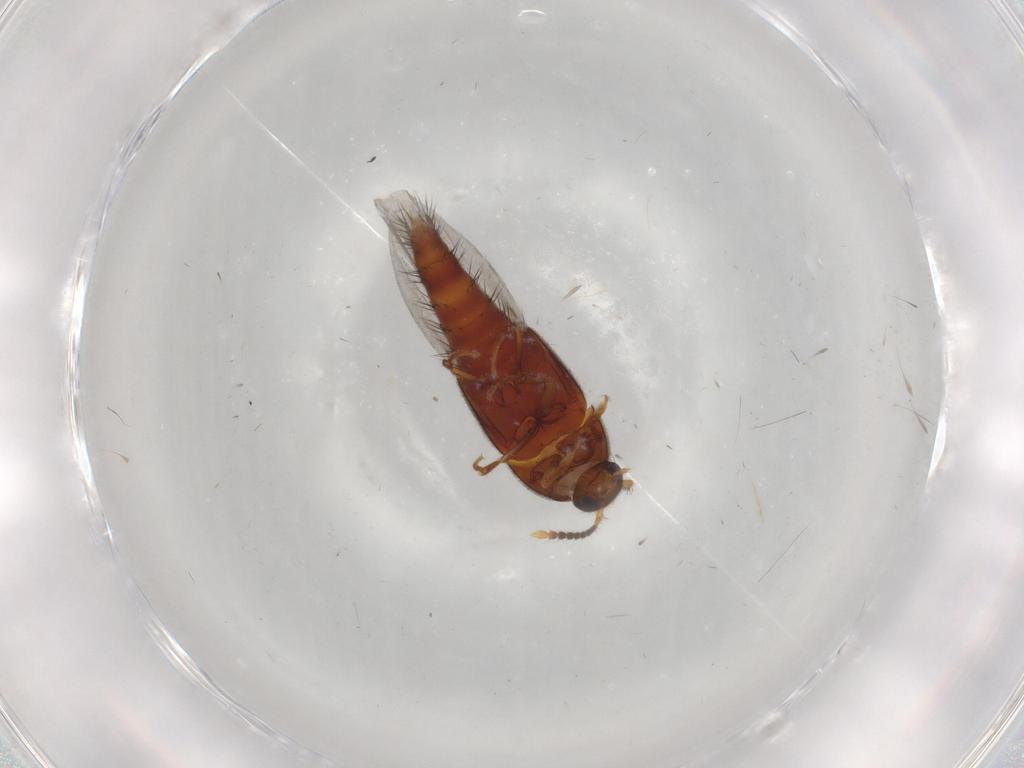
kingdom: Animalia
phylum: Arthropoda
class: Insecta
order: Coleoptera
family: Staphylinidae
